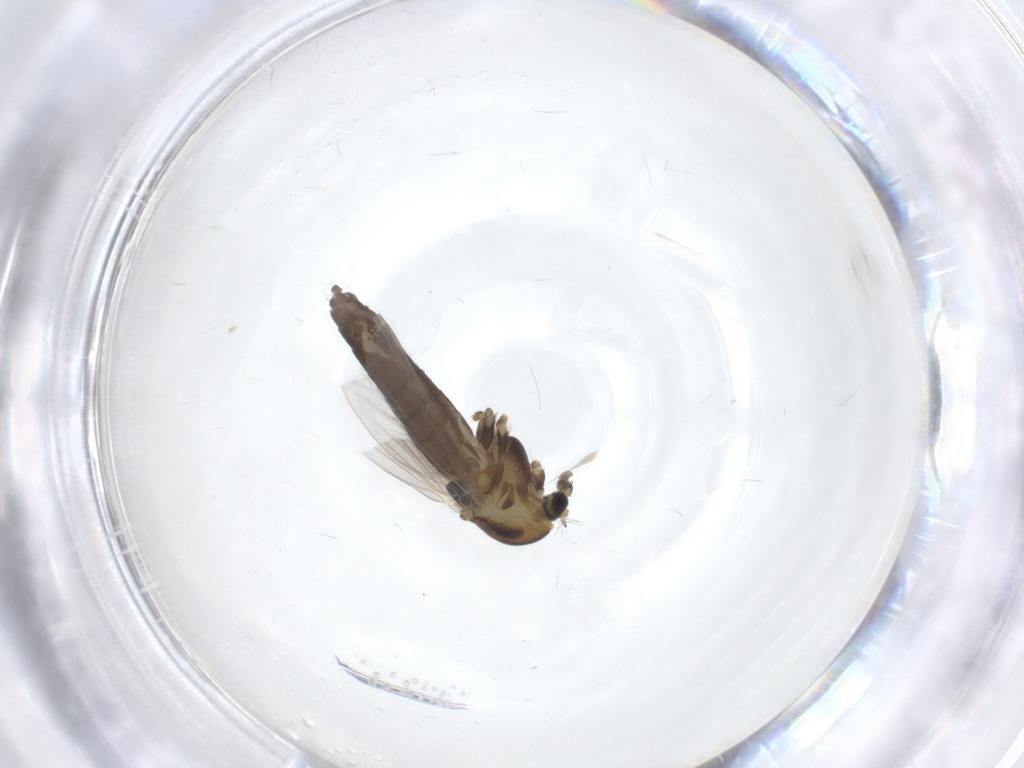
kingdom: Animalia
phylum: Arthropoda
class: Insecta
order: Diptera
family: Chironomidae
